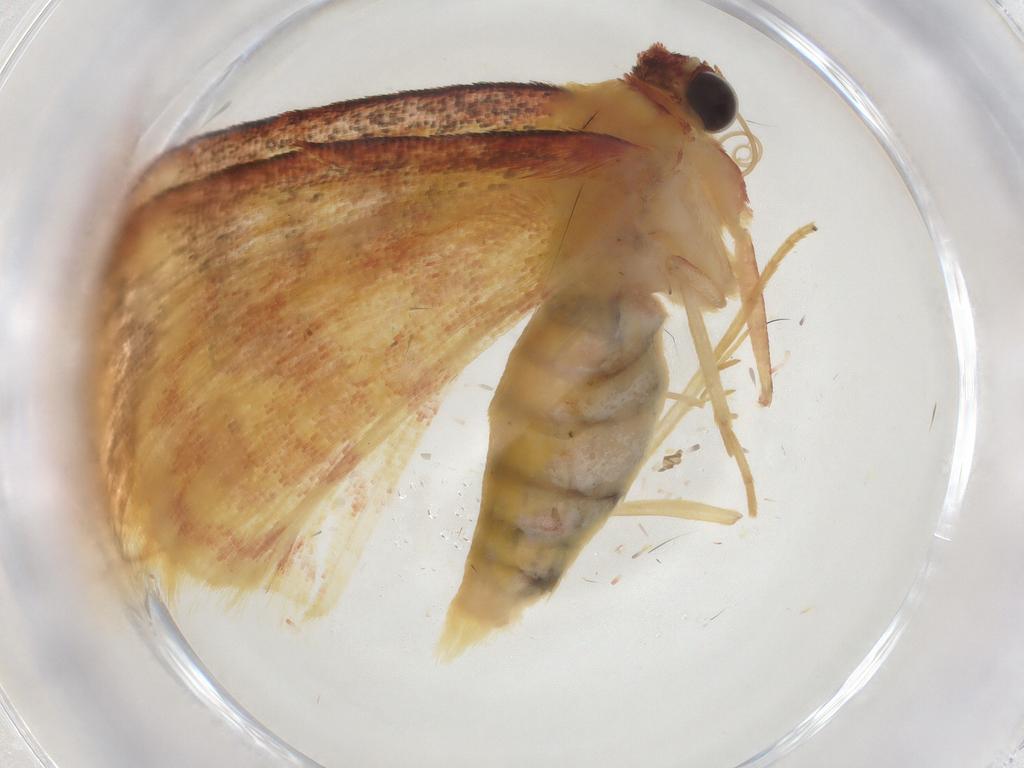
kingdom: Animalia
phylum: Arthropoda
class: Insecta
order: Lepidoptera
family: Geometridae
